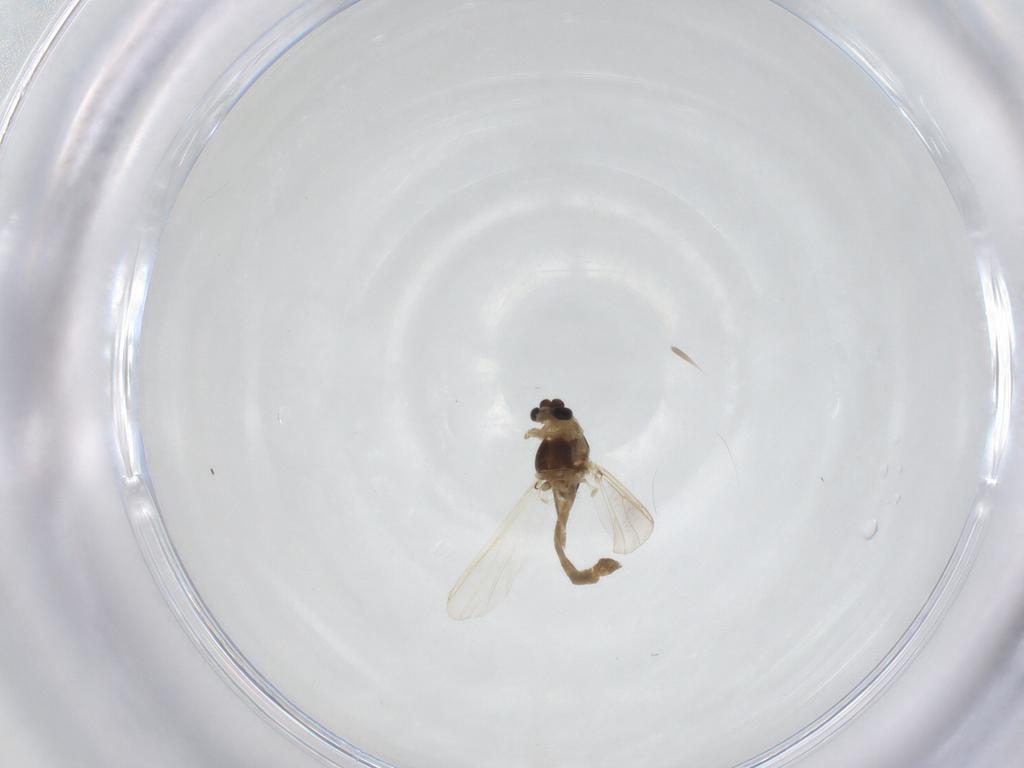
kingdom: Animalia
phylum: Arthropoda
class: Insecta
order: Diptera
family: Chironomidae
